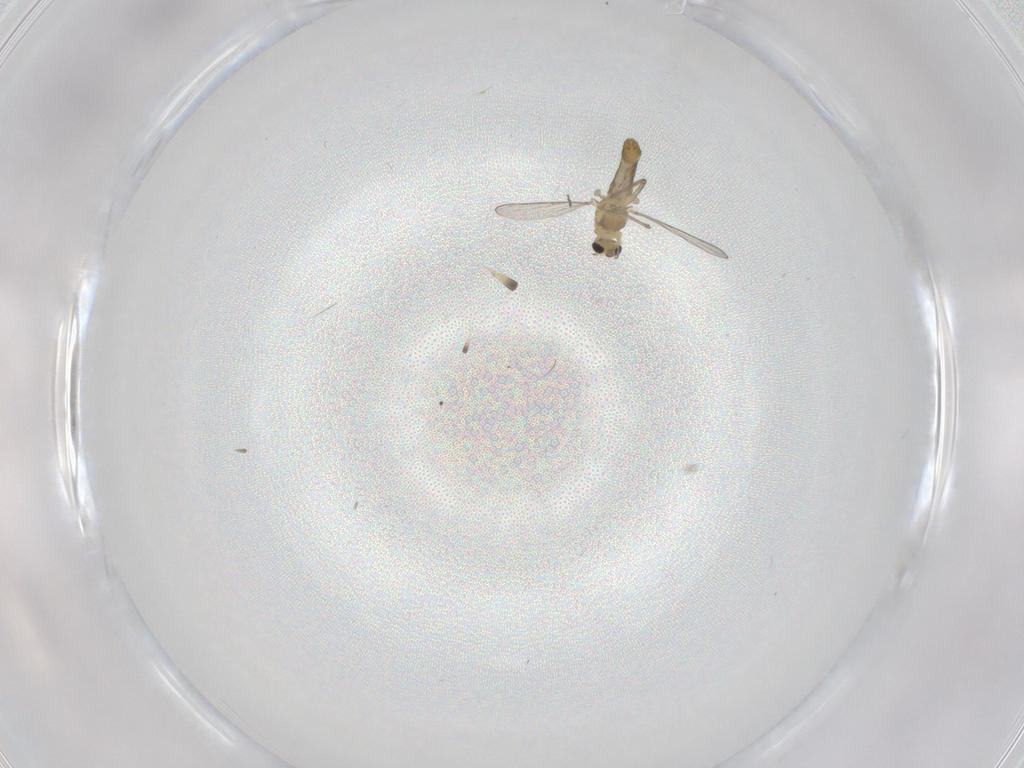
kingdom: Animalia
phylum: Arthropoda
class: Insecta
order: Diptera
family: Chironomidae
